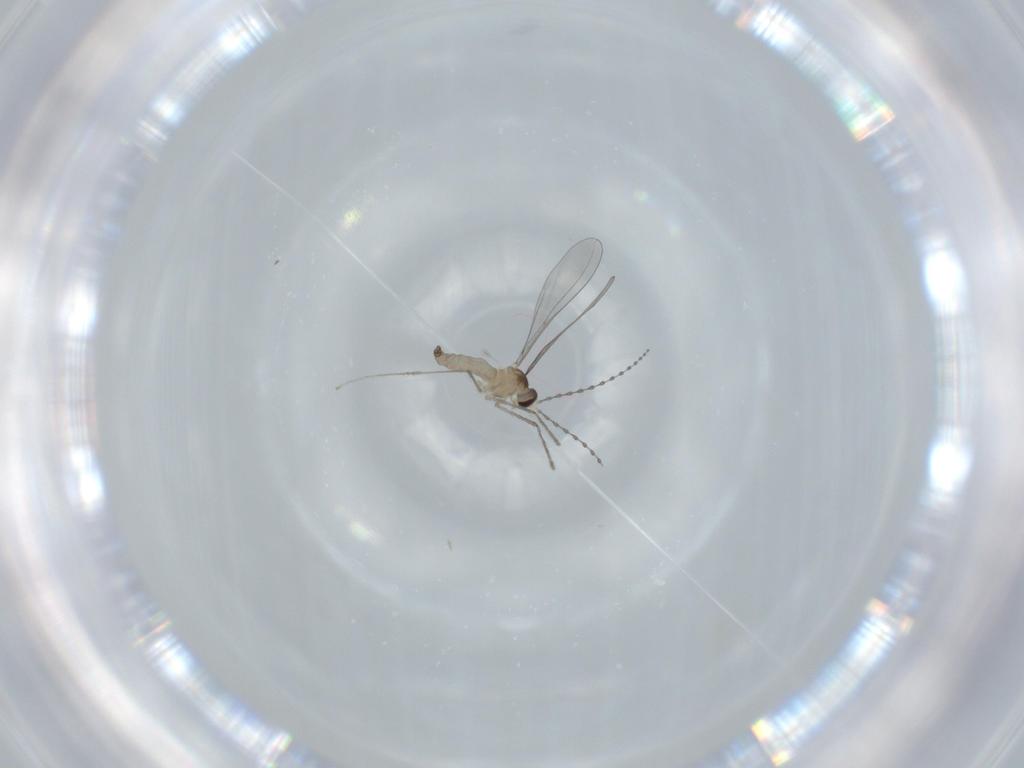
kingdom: Animalia
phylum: Arthropoda
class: Insecta
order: Diptera
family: Cecidomyiidae
